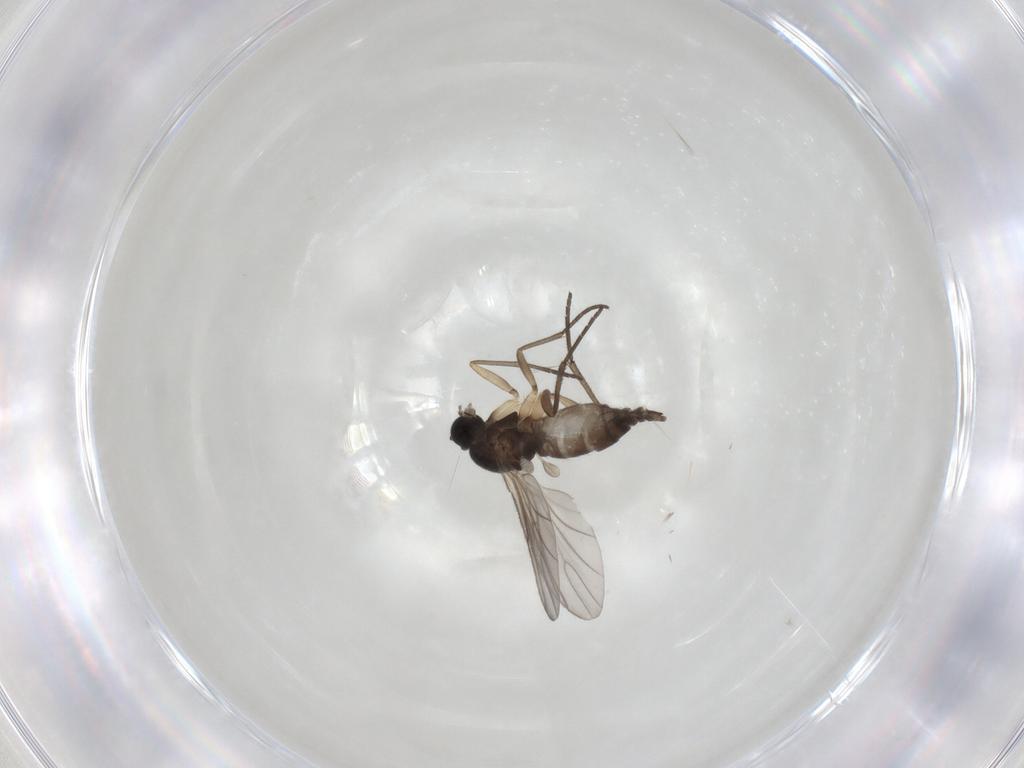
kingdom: Animalia
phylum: Arthropoda
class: Insecta
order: Diptera
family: Sciaridae
